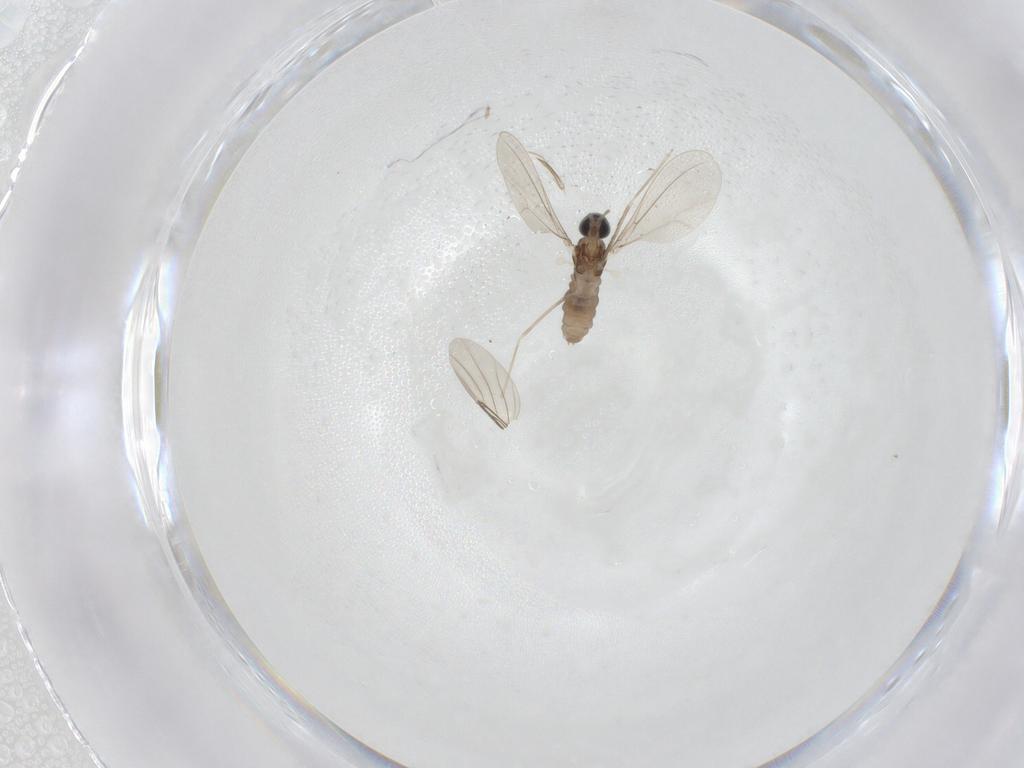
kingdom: Animalia
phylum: Arthropoda
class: Insecta
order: Diptera
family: Cecidomyiidae
